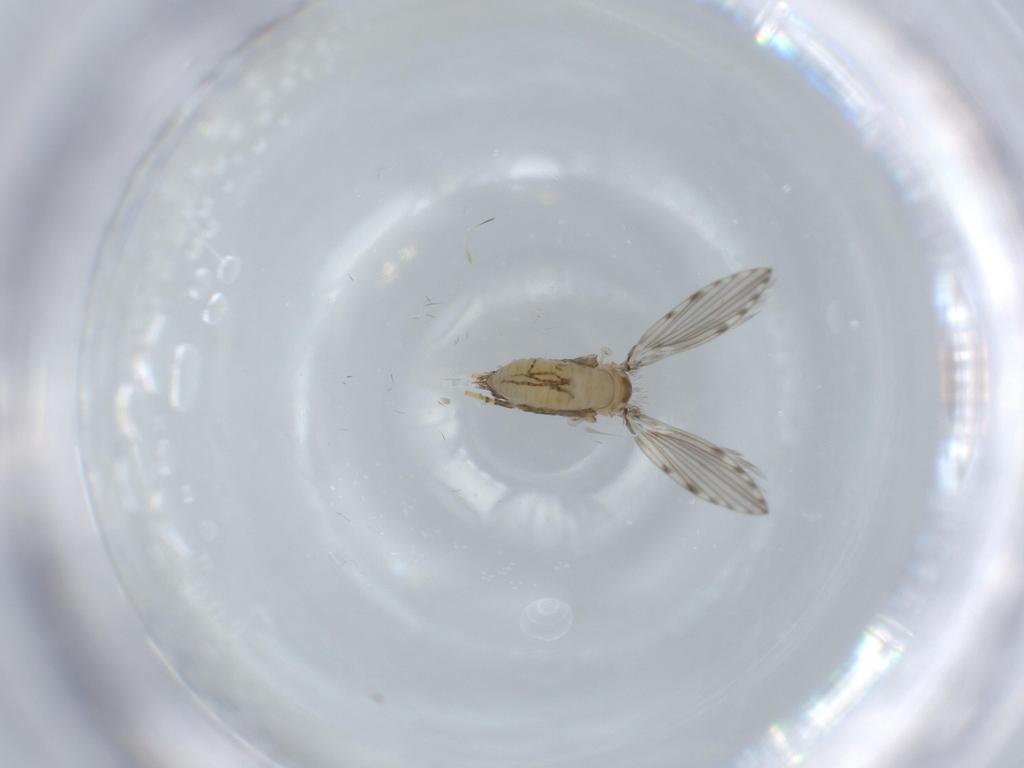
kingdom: Animalia
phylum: Arthropoda
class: Insecta
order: Diptera
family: Psychodidae
